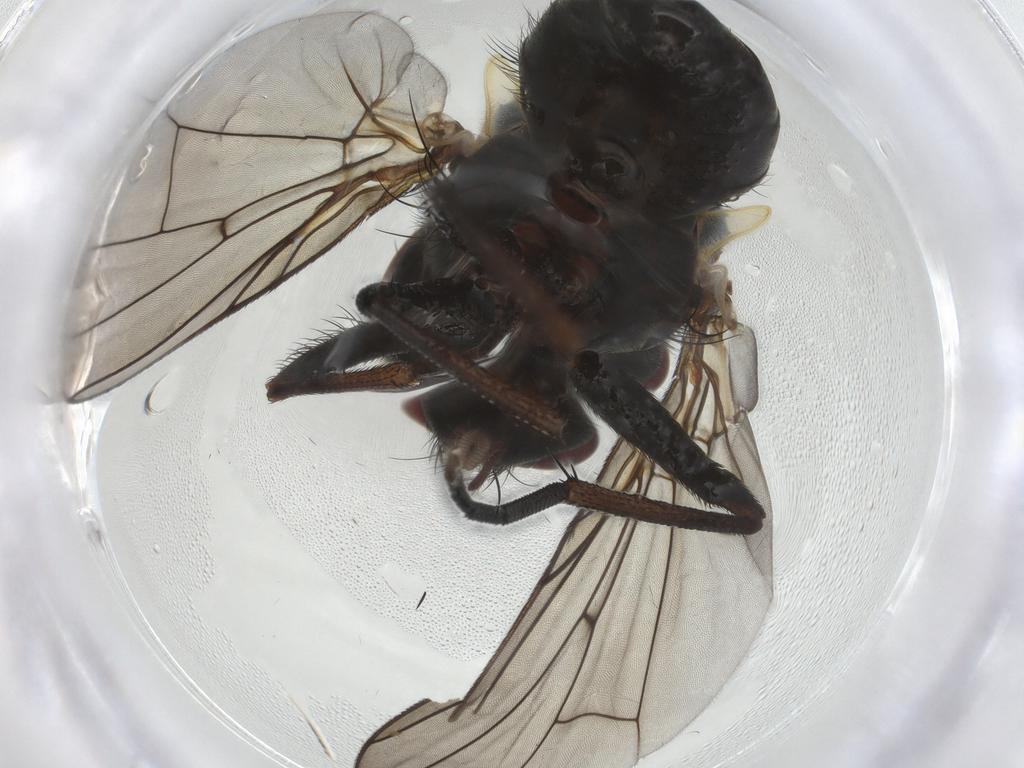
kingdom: Animalia
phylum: Arthropoda
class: Insecta
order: Diptera
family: Muscidae
